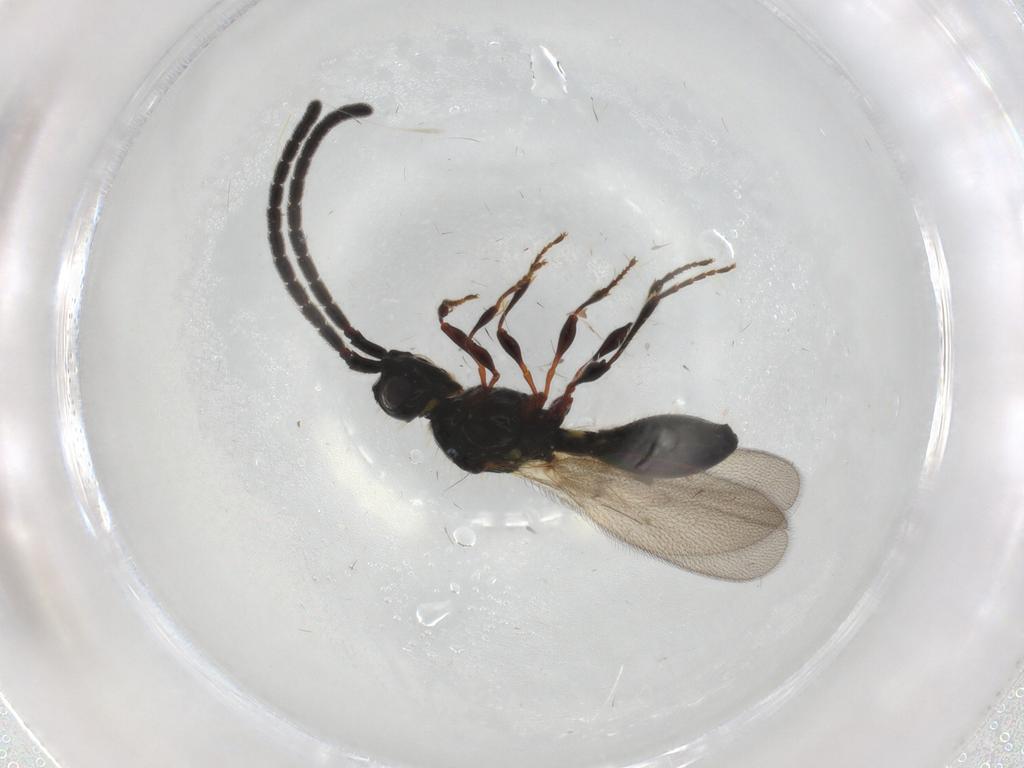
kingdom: Animalia
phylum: Arthropoda
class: Insecta
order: Hymenoptera
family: Diapriidae
